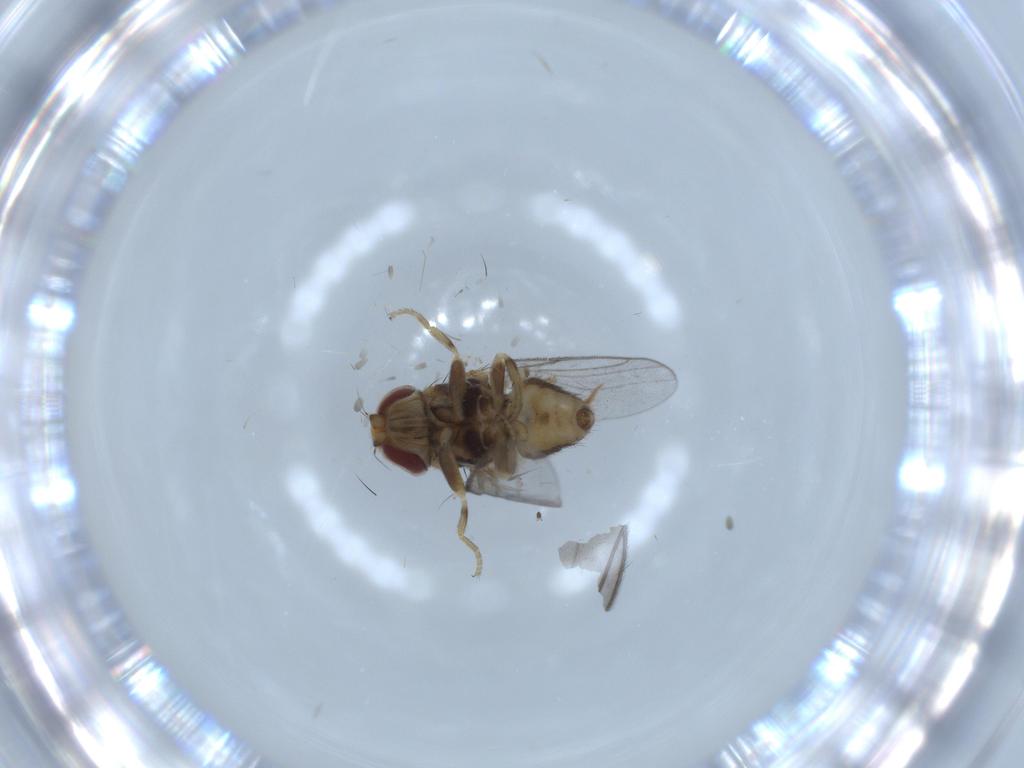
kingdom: Animalia
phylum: Arthropoda
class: Insecta
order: Diptera
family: Chloropidae
